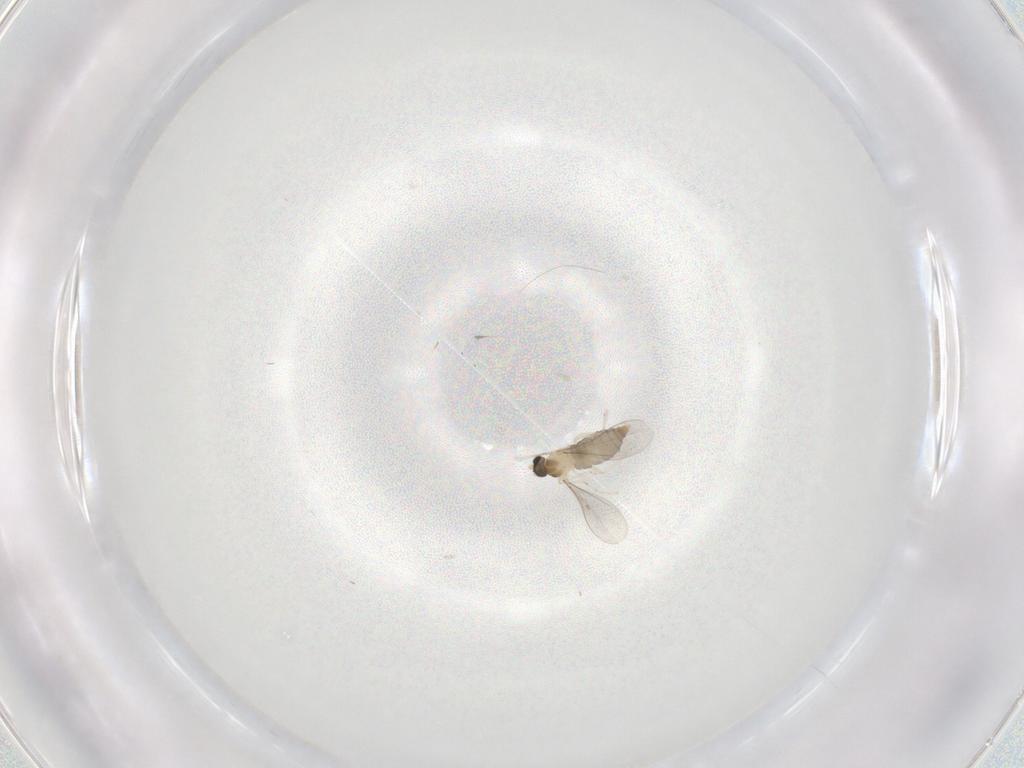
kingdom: Animalia
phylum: Arthropoda
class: Insecta
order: Diptera
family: Cecidomyiidae
